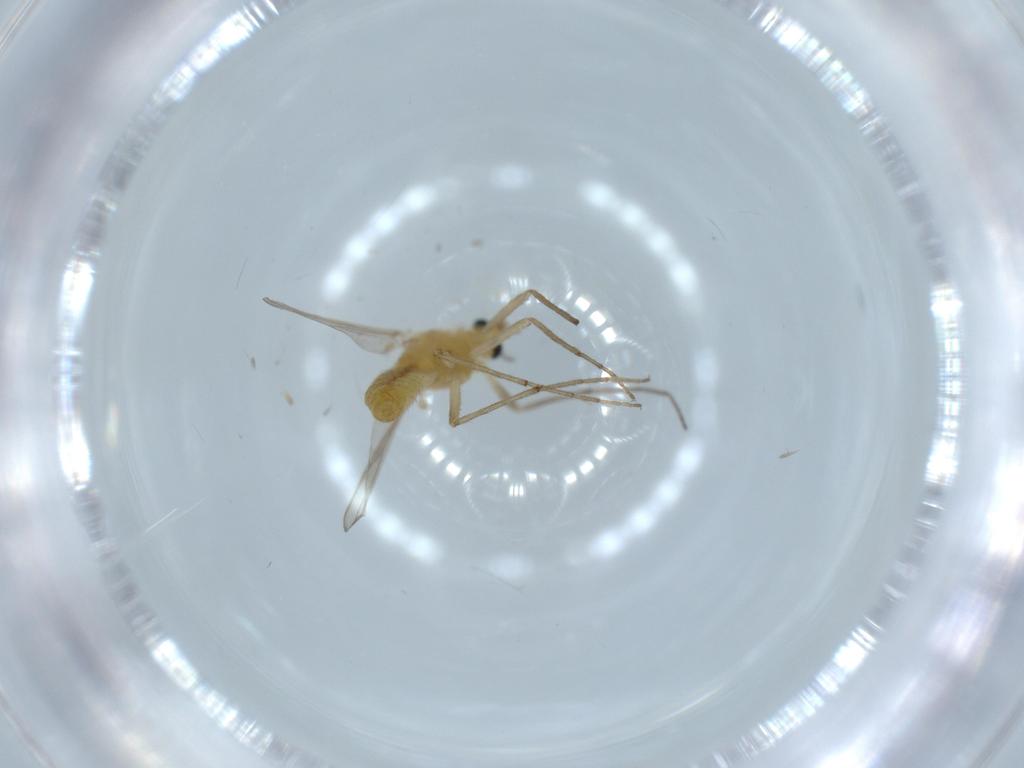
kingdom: Animalia
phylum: Arthropoda
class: Insecta
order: Diptera
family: Chironomidae
